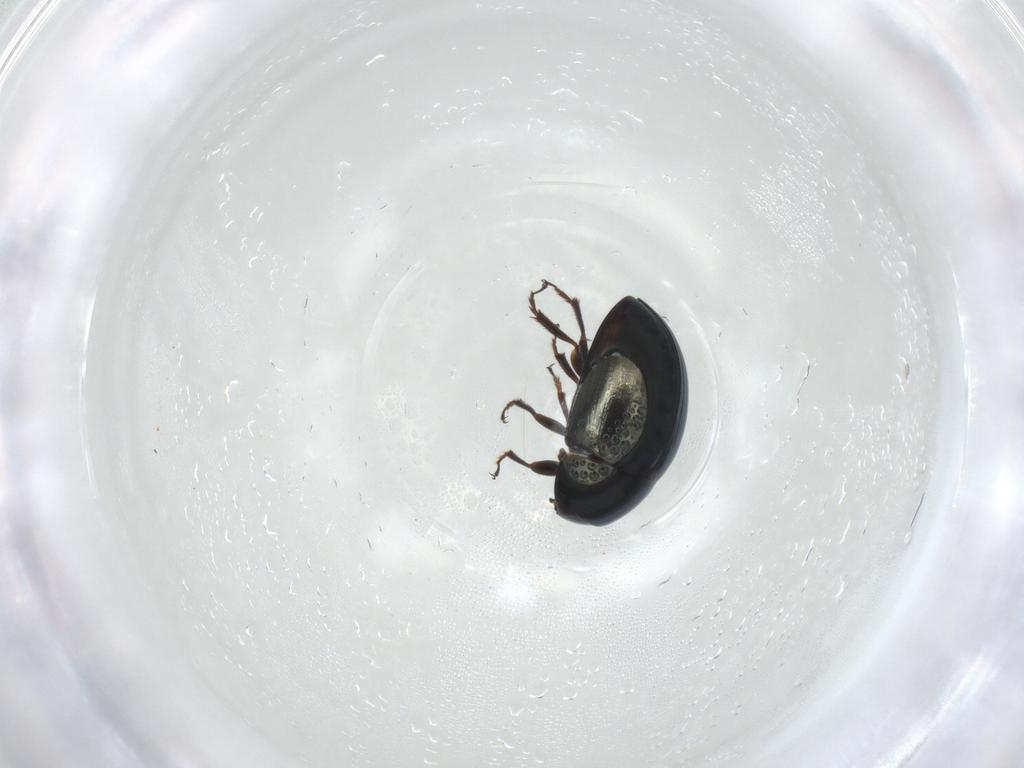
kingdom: Animalia
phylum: Arthropoda
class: Insecta
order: Coleoptera
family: Phalacridae
